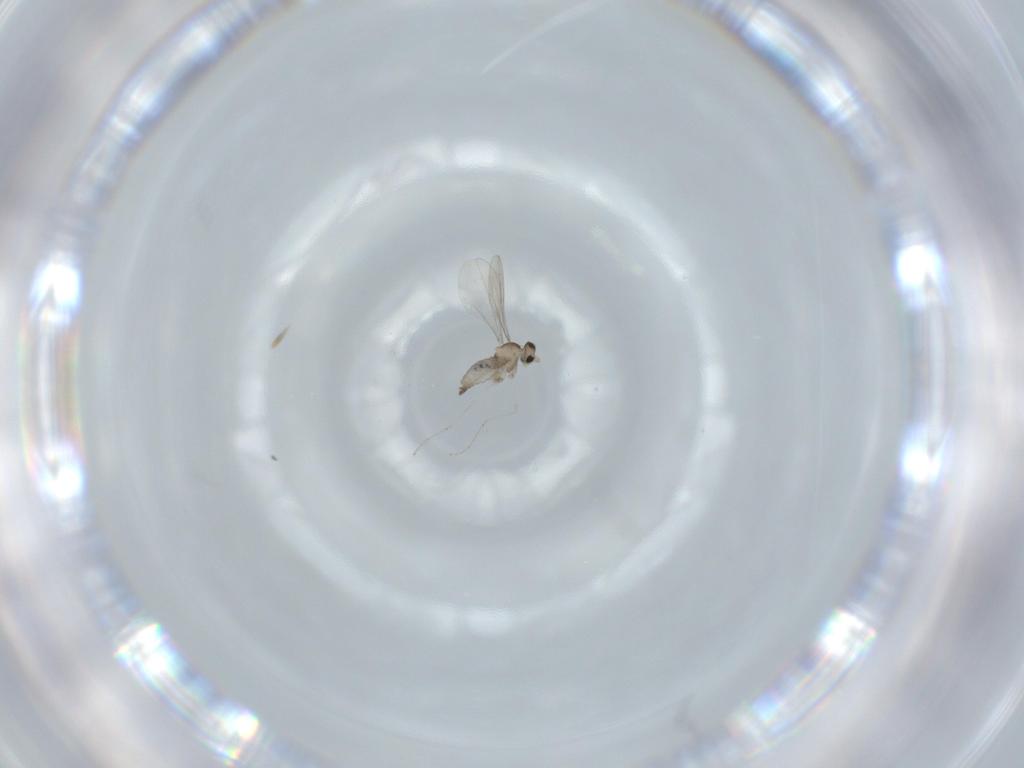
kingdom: Animalia
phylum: Arthropoda
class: Insecta
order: Diptera
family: Cecidomyiidae
